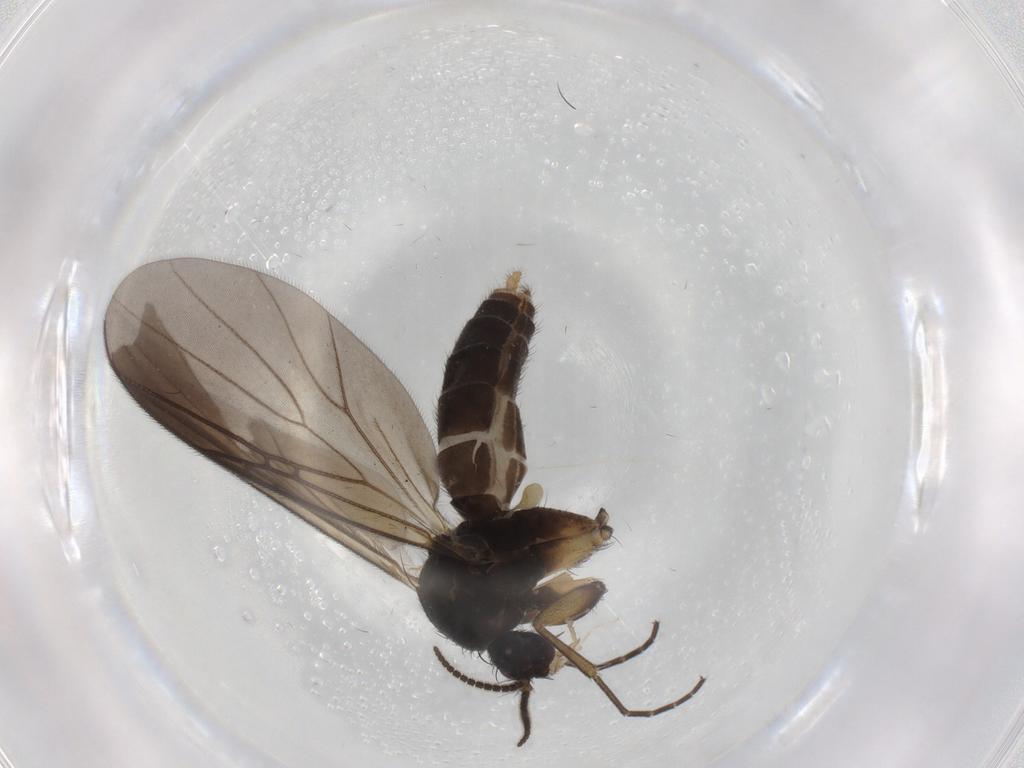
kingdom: Animalia
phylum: Arthropoda
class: Insecta
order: Diptera
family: Mycetophilidae
